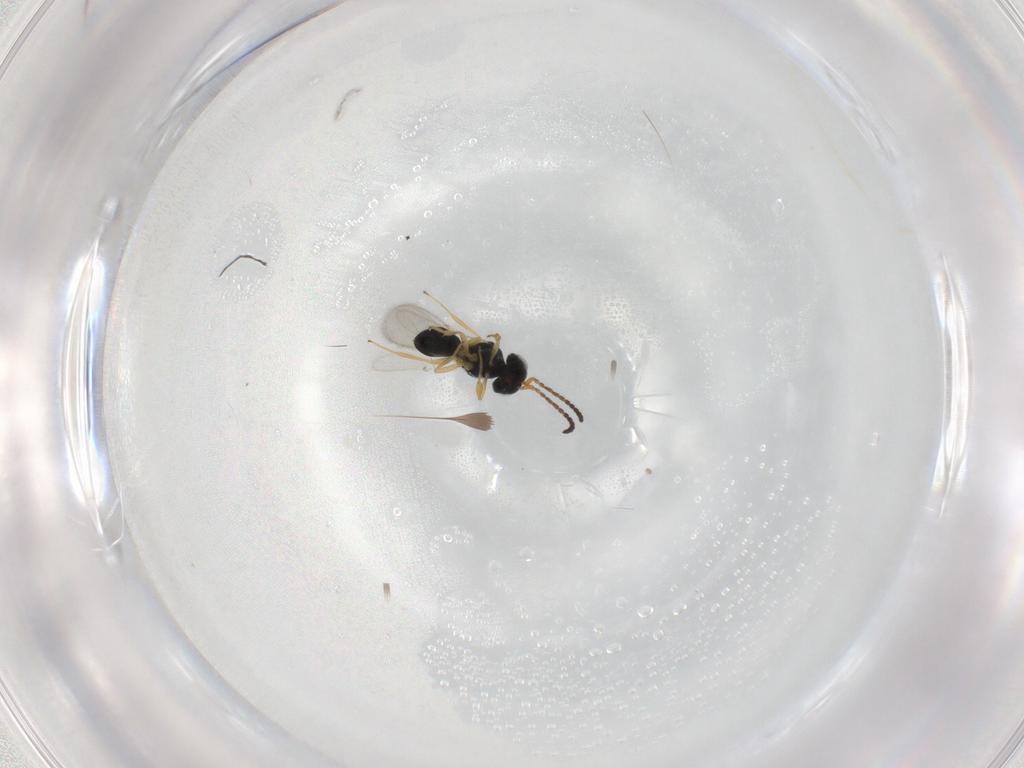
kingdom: Animalia
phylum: Arthropoda
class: Insecta
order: Hymenoptera
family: Scelionidae
